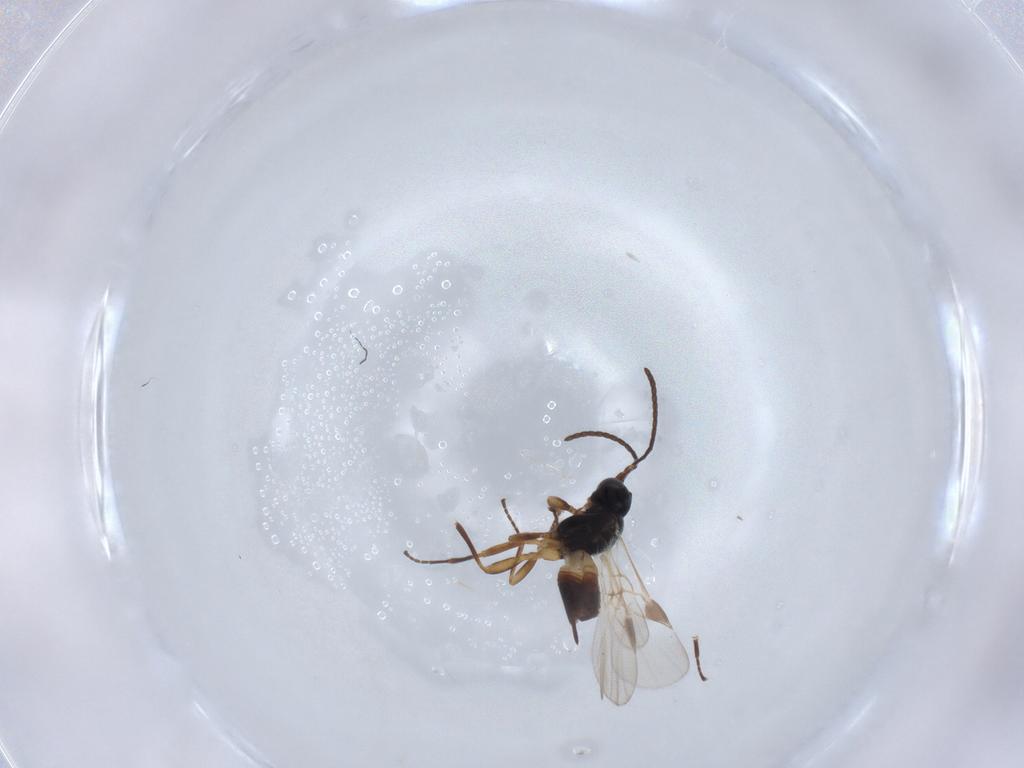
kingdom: Animalia
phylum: Arthropoda
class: Insecta
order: Hymenoptera
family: Braconidae
